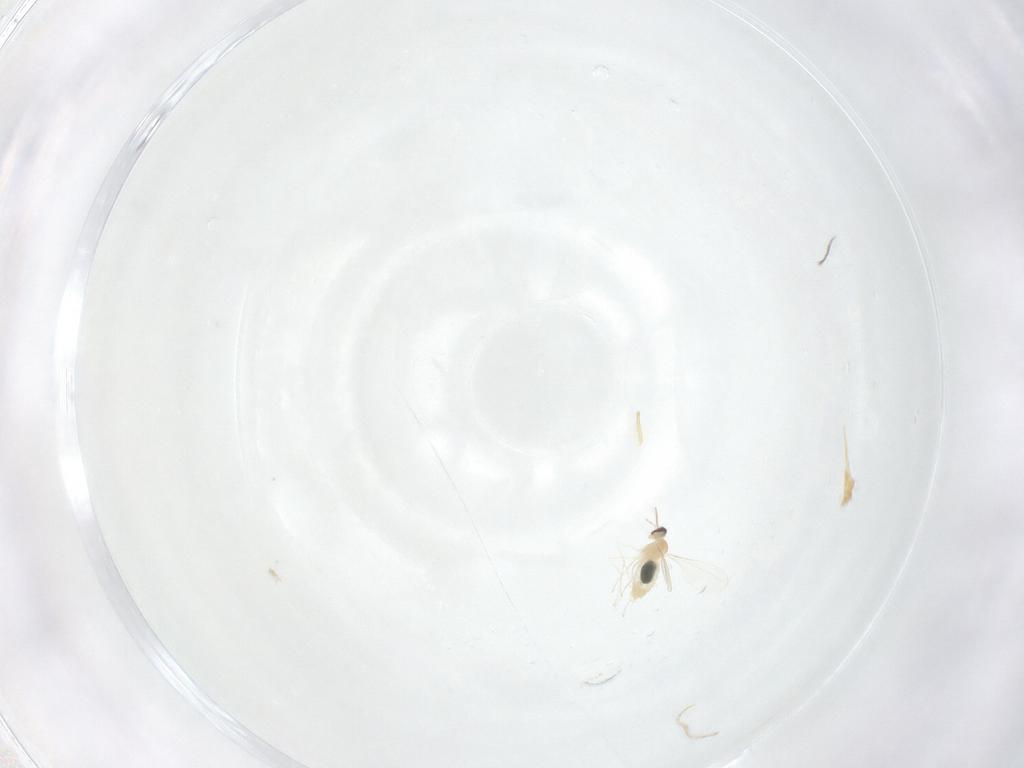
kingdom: Animalia
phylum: Arthropoda
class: Insecta
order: Diptera
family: Cecidomyiidae
